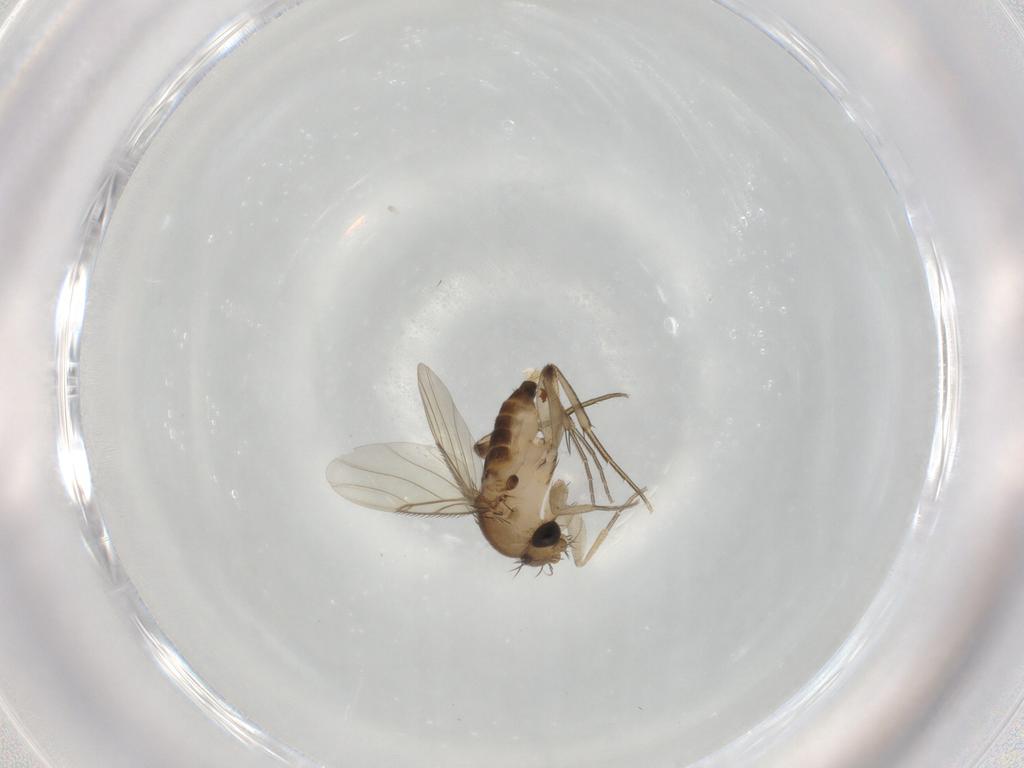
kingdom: Animalia
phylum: Arthropoda
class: Insecta
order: Diptera
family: Chironomidae
